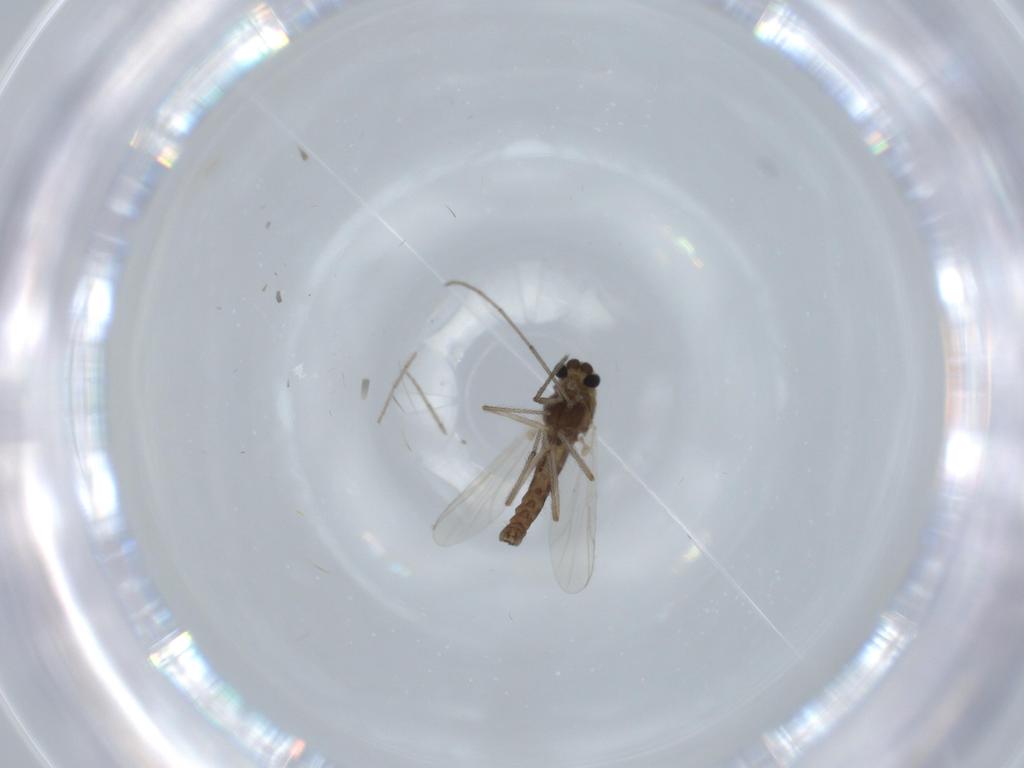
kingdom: Animalia
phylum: Arthropoda
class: Insecta
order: Diptera
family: Chironomidae
